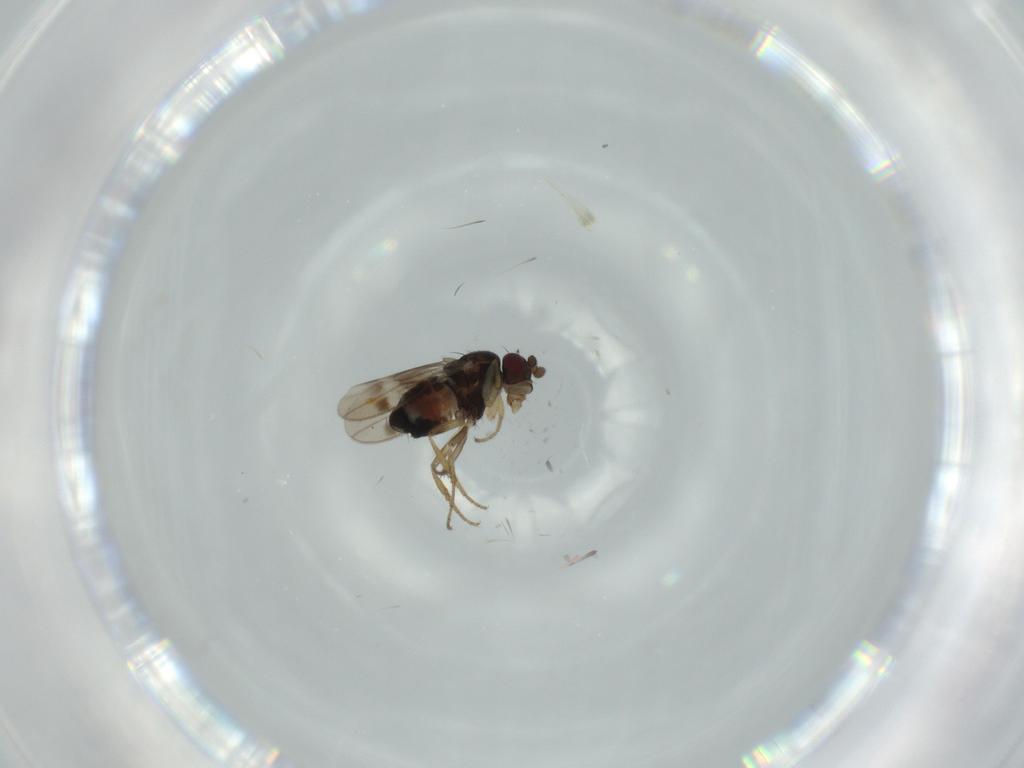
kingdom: Animalia
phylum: Arthropoda
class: Insecta
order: Diptera
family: Sphaeroceridae
